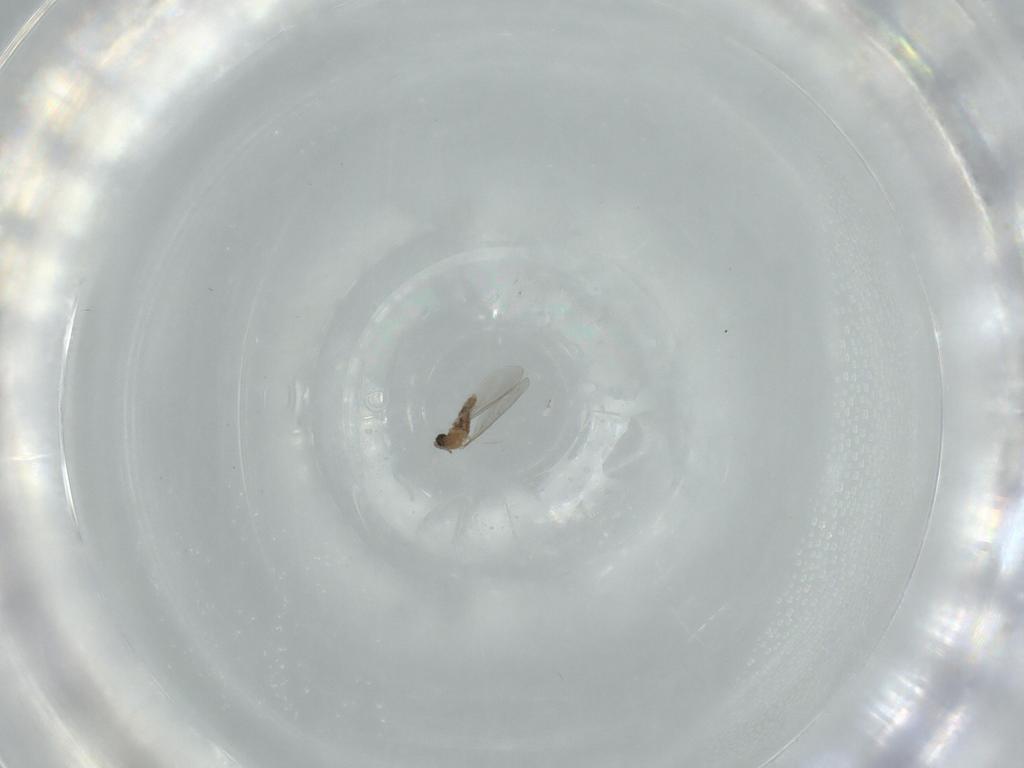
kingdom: Animalia
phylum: Arthropoda
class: Insecta
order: Diptera
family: Cecidomyiidae
